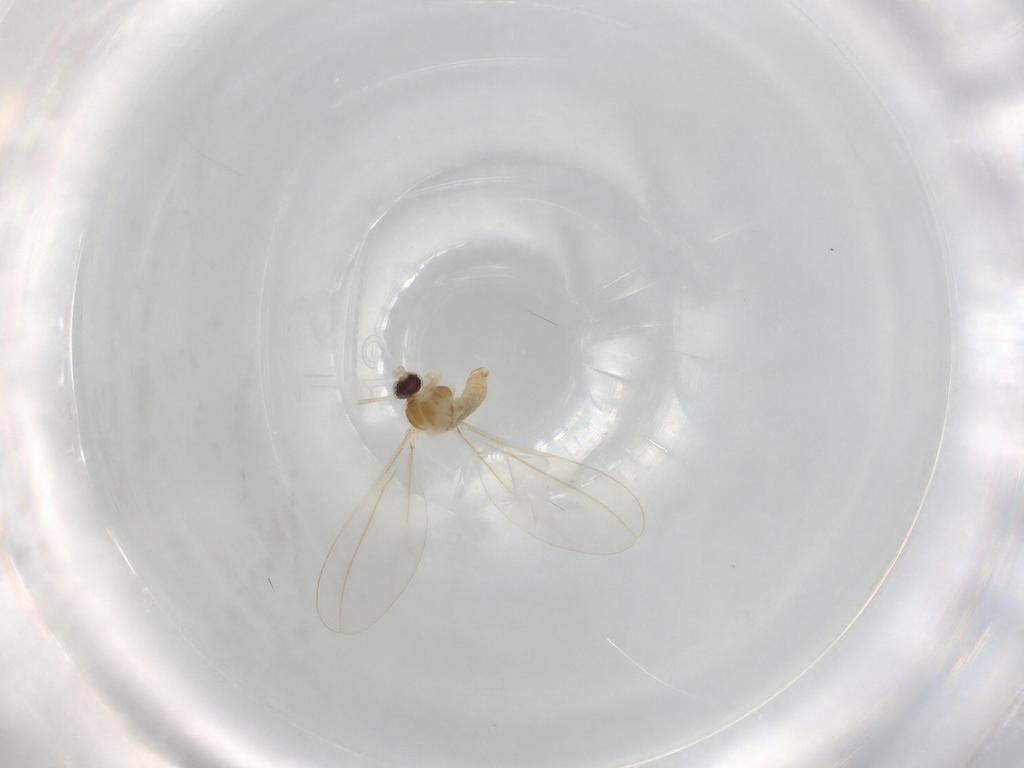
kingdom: Animalia
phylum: Arthropoda
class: Insecta
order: Diptera
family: Cecidomyiidae
